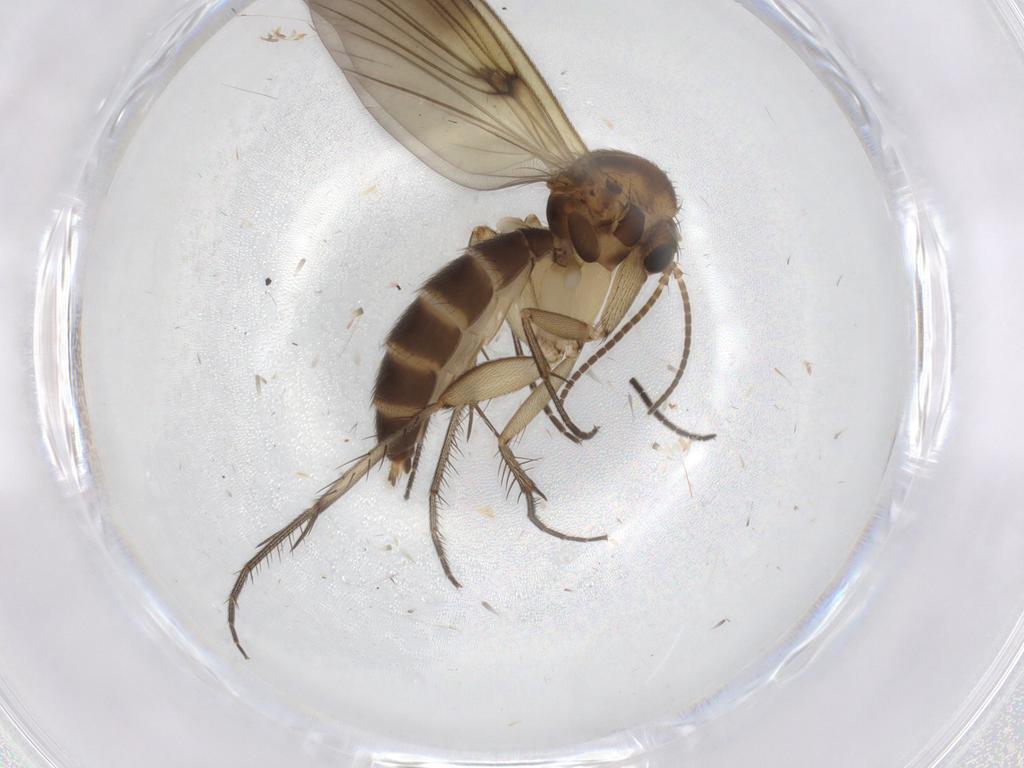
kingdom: Animalia
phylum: Arthropoda
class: Insecta
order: Diptera
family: Mycetophilidae
